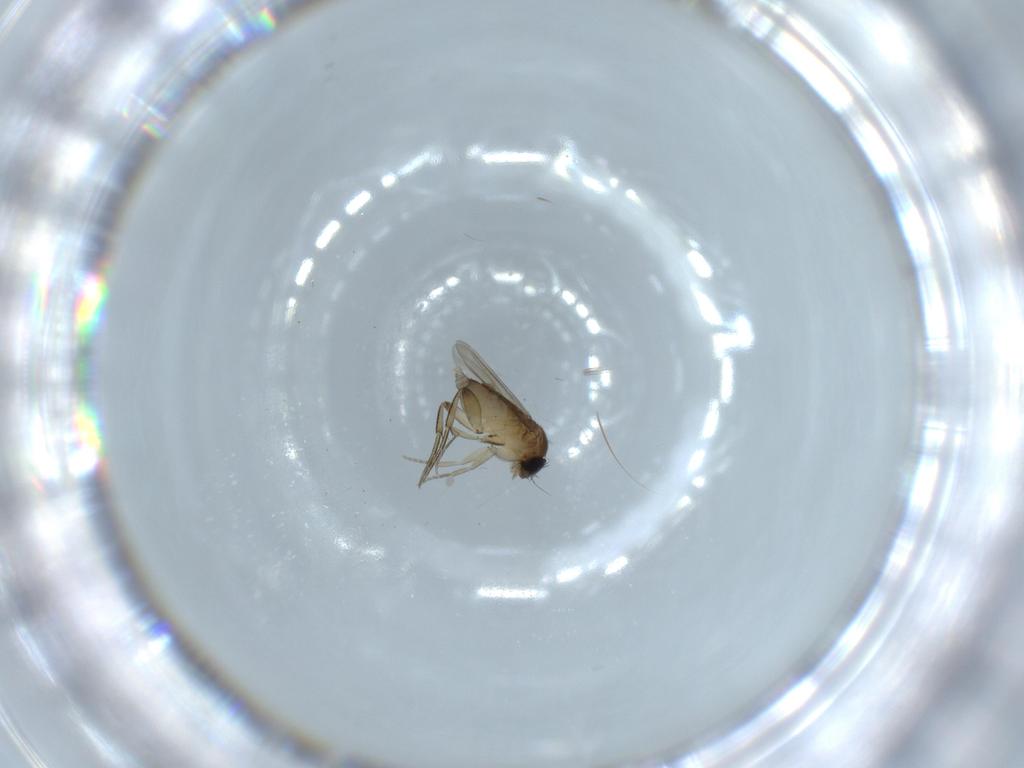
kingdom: Animalia
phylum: Arthropoda
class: Insecta
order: Diptera
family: Phoridae
